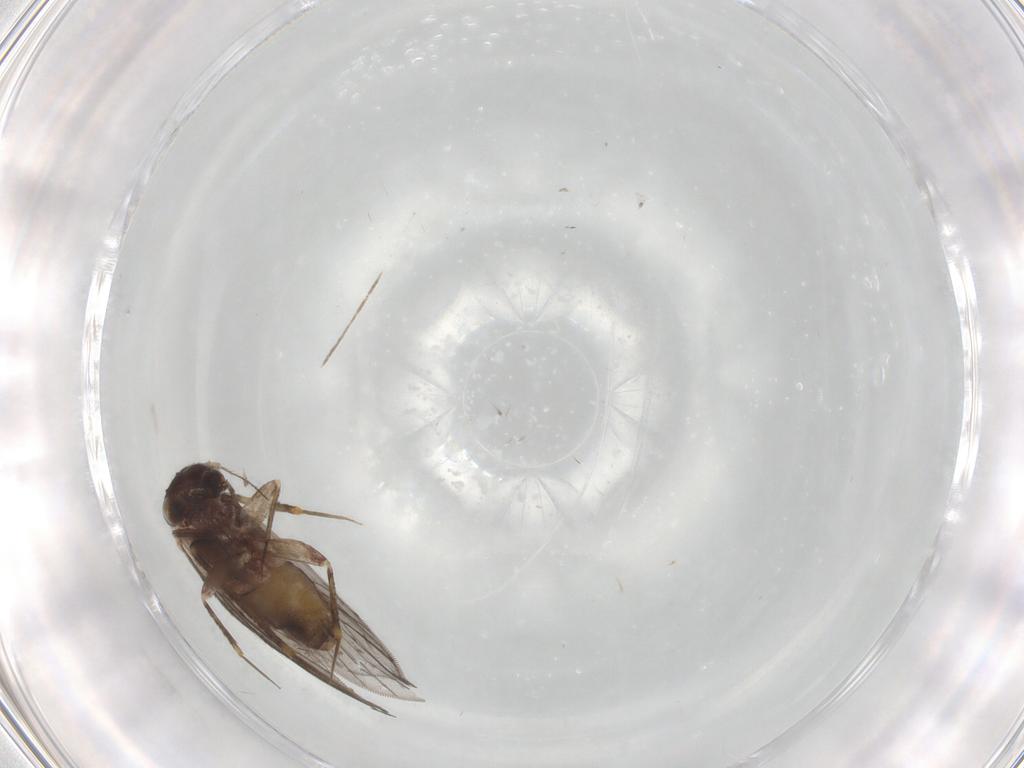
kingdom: Animalia
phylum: Arthropoda
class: Insecta
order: Psocodea
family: Lepidopsocidae
